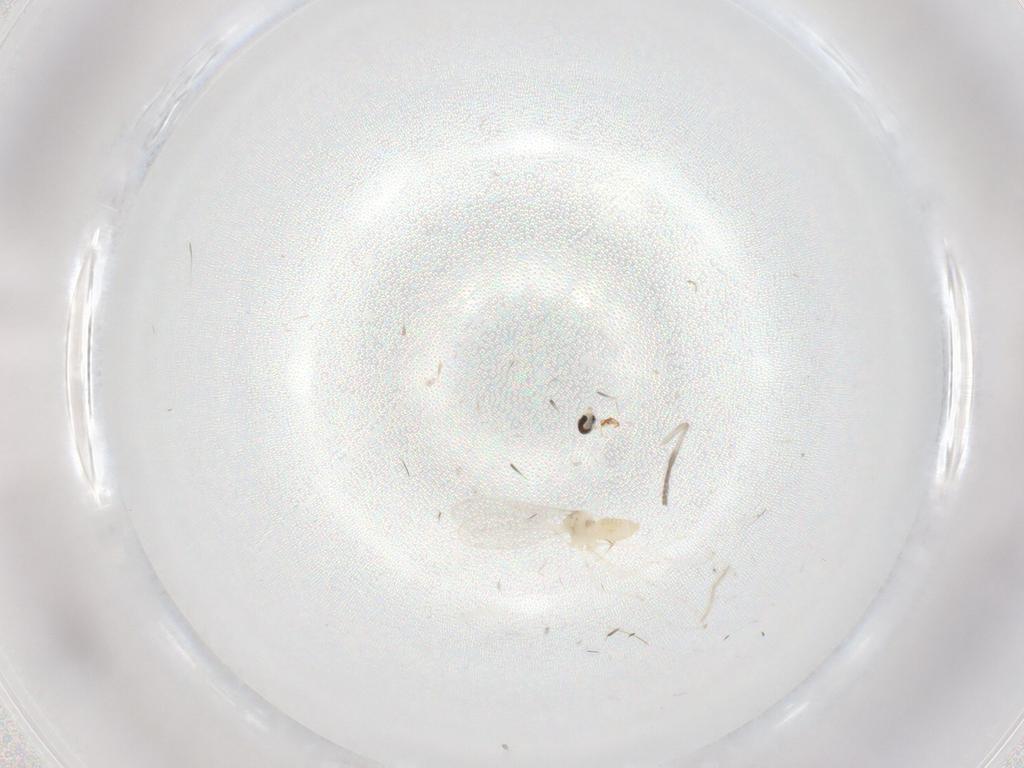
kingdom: Animalia
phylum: Arthropoda
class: Insecta
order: Diptera
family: Cecidomyiidae
